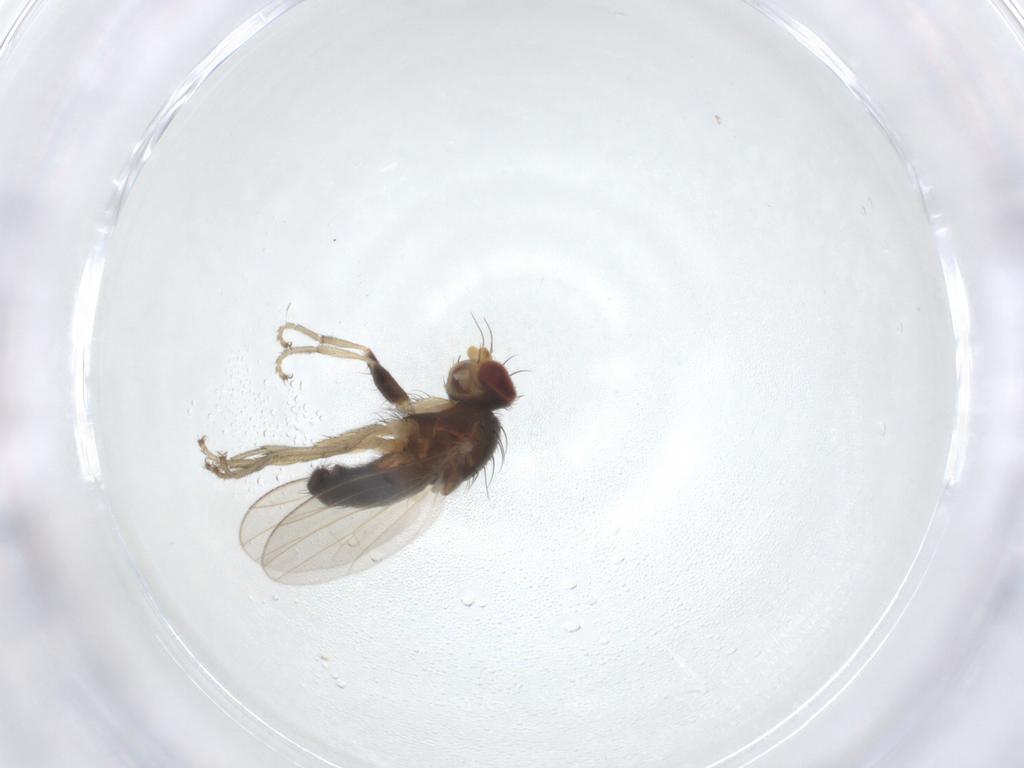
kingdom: Animalia
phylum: Arthropoda
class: Insecta
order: Diptera
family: Heleomyzidae
